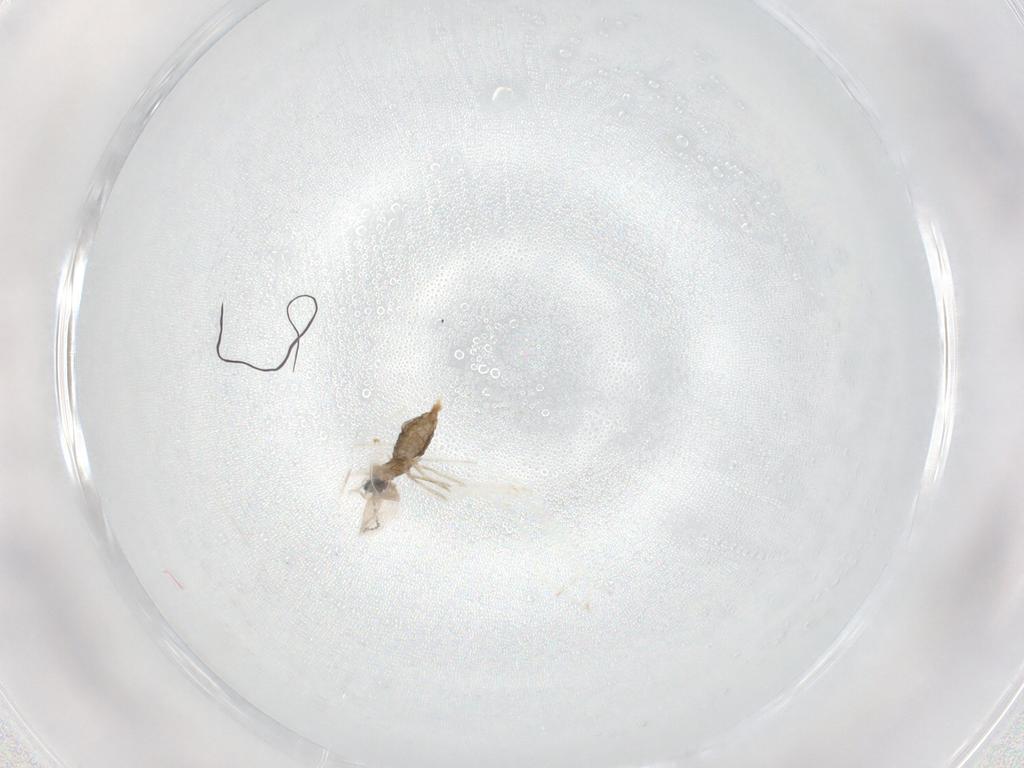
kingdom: Animalia
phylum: Arthropoda
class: Insecta
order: Diptera
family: Cecidomyiidae
